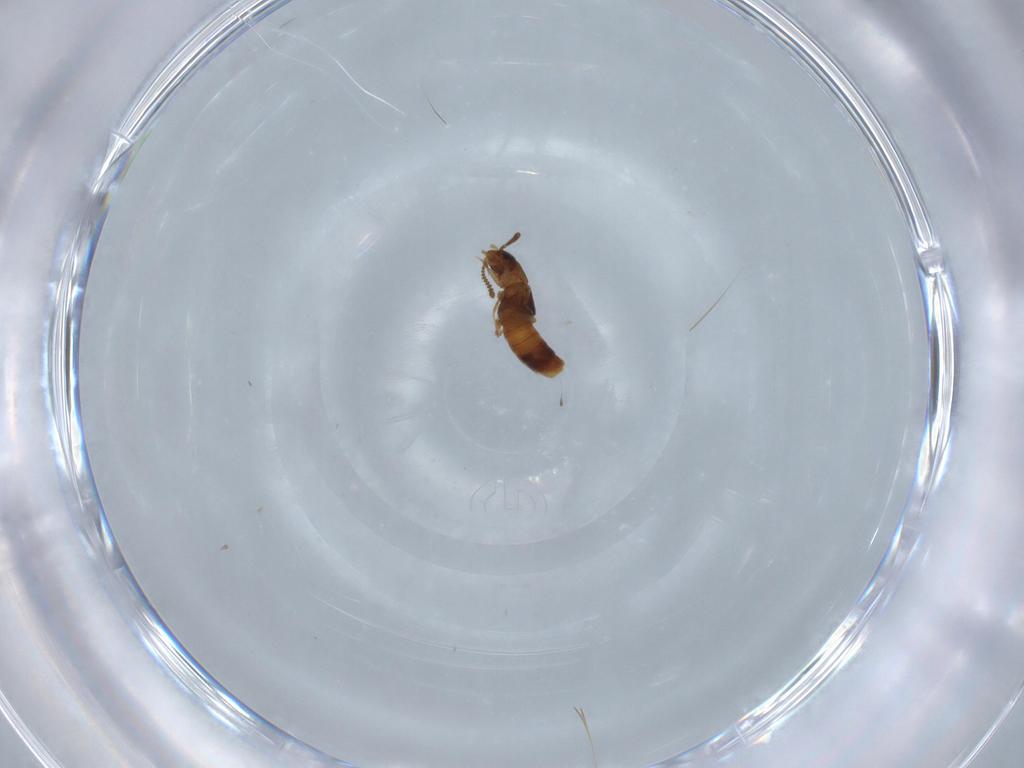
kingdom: Animalia
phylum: Arthropoda
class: Insecta
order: Coleoptera
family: Staphylinidae
